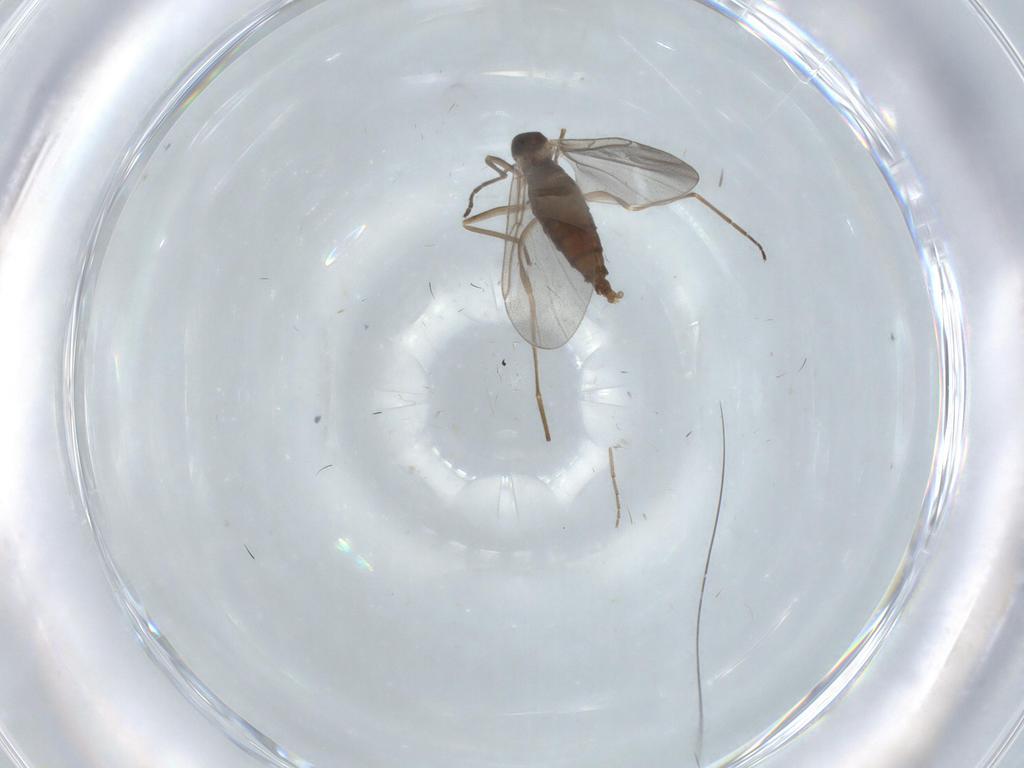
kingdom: Animalia
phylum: Arthropoda
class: Insecta
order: Diptera
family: Cecidomyiidae
